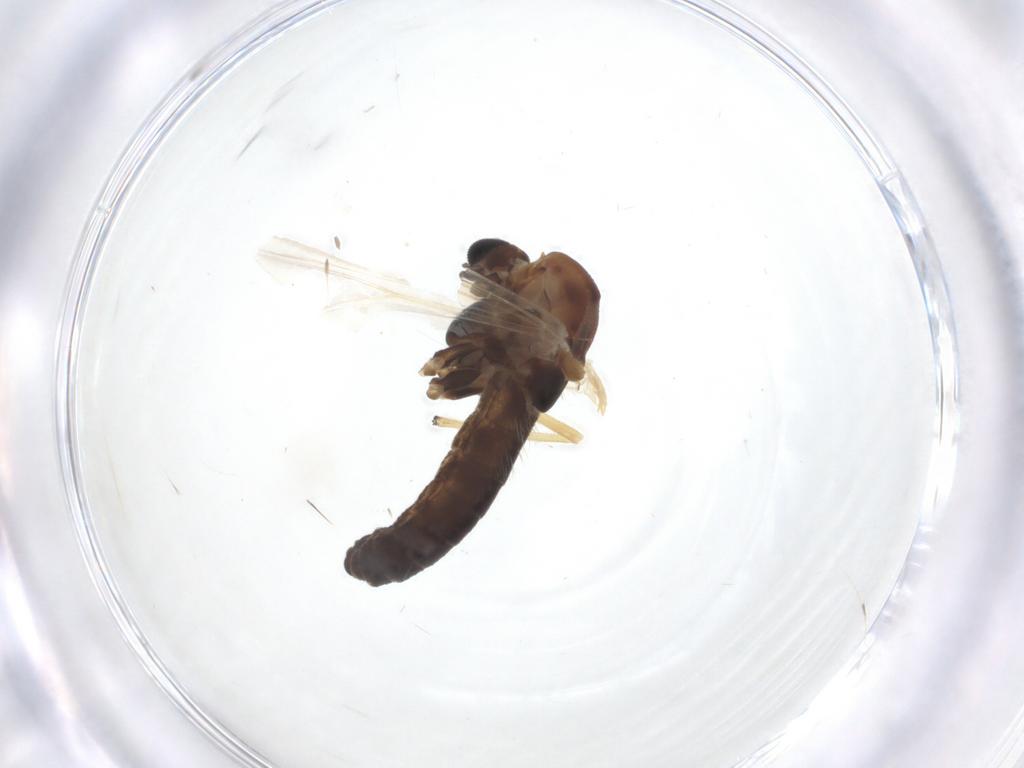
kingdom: Animalia
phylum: Arthropoda
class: Insecta
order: Diptera
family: Chironomidae
